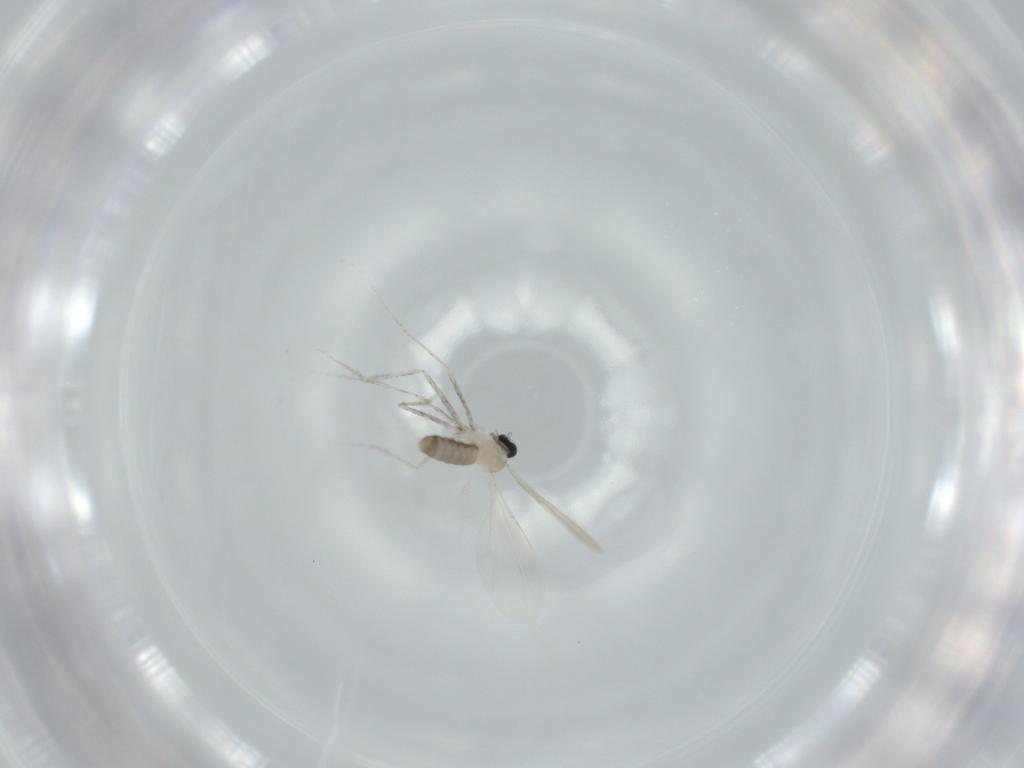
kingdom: Animalia
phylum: Arthropoda
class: Insecta
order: Diptera
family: Cecidomyiidae
